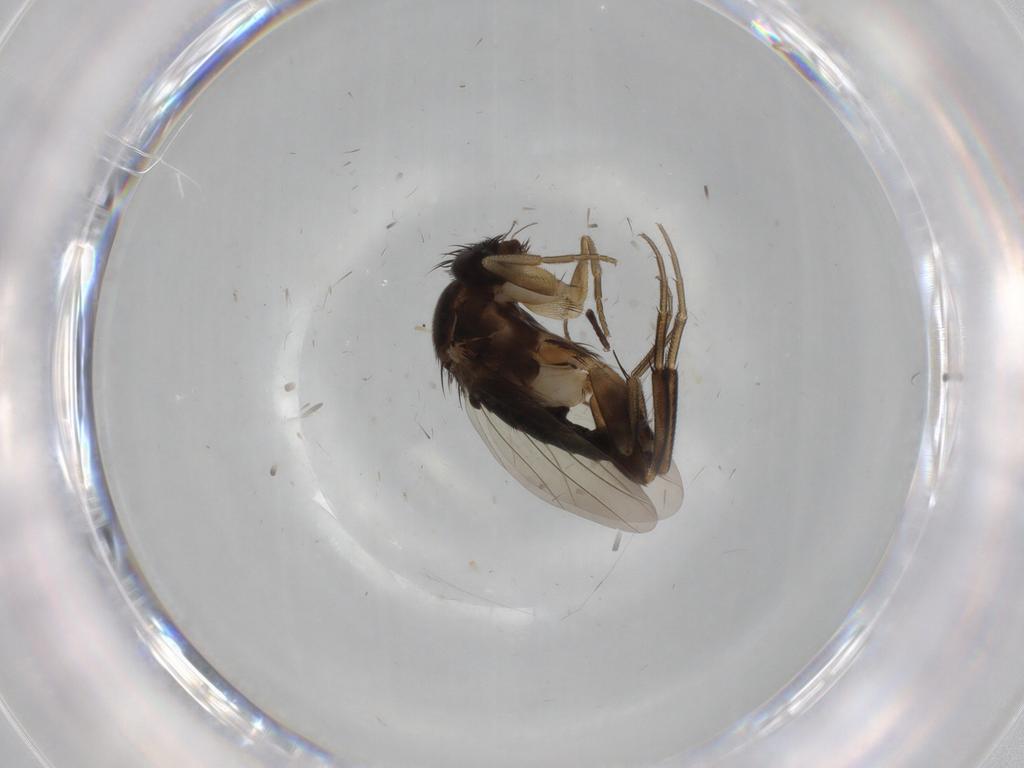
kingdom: Animalia
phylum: Arthropoda
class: Insecta
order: Diptera
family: Phoridae
